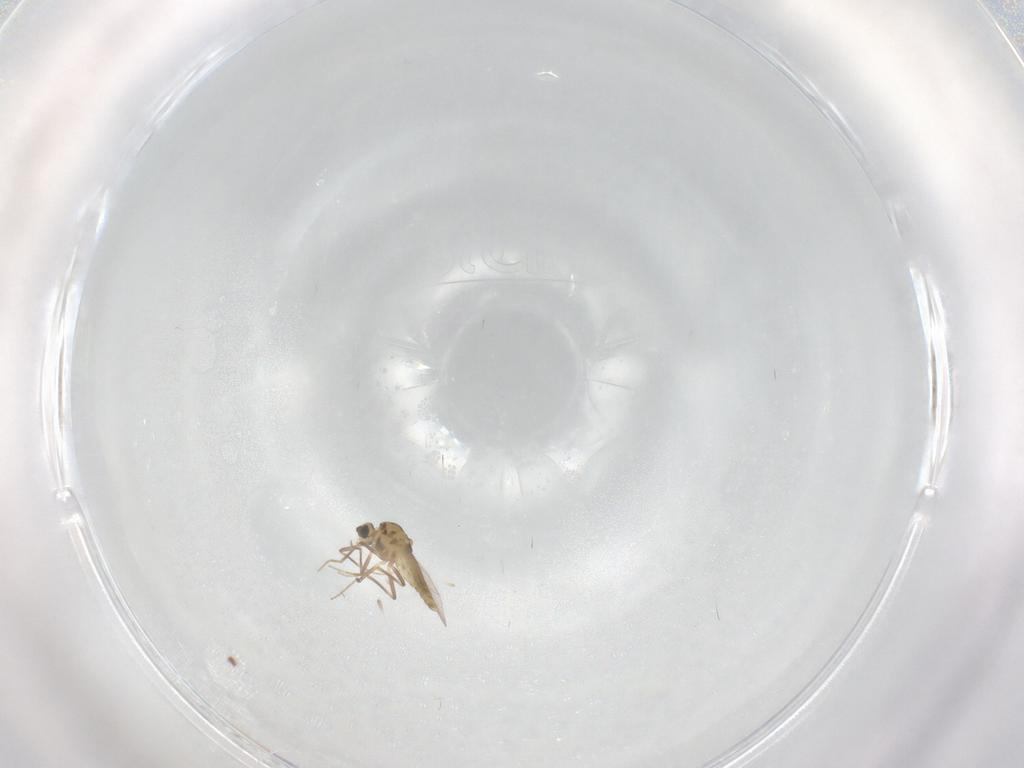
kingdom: Animalia
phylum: Arthropoda
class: Insecta
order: Diptera
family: Chironomidae
